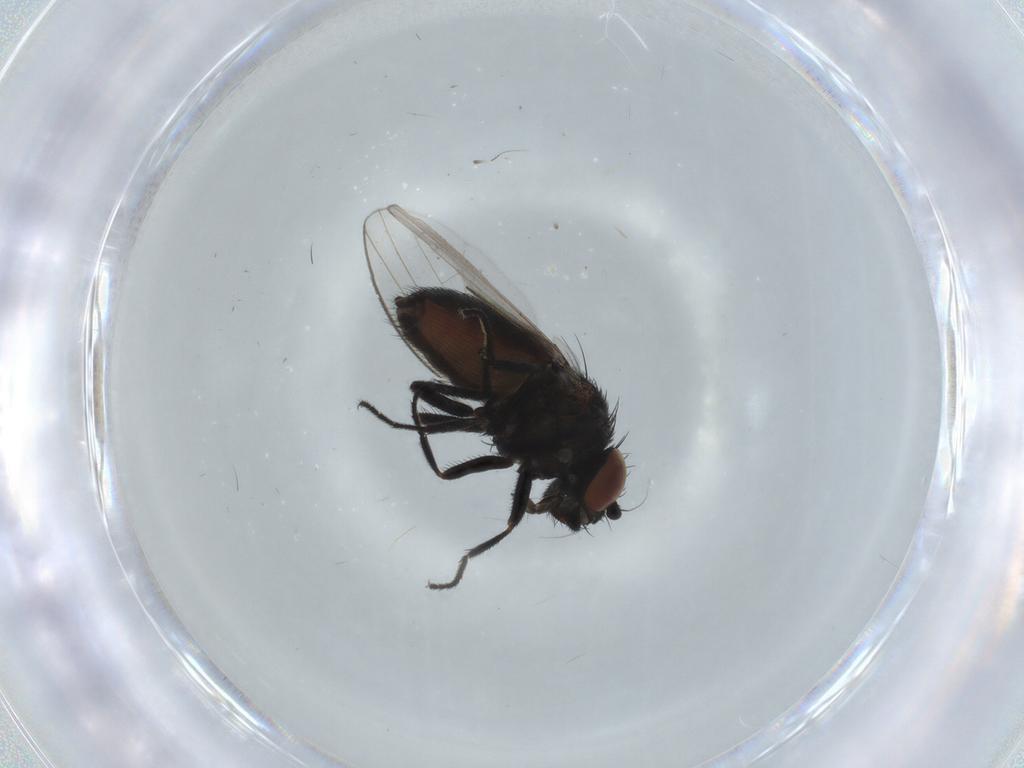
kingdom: Animalia
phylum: Arthropoda
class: Insecta
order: Diptera
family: Milichiidae
